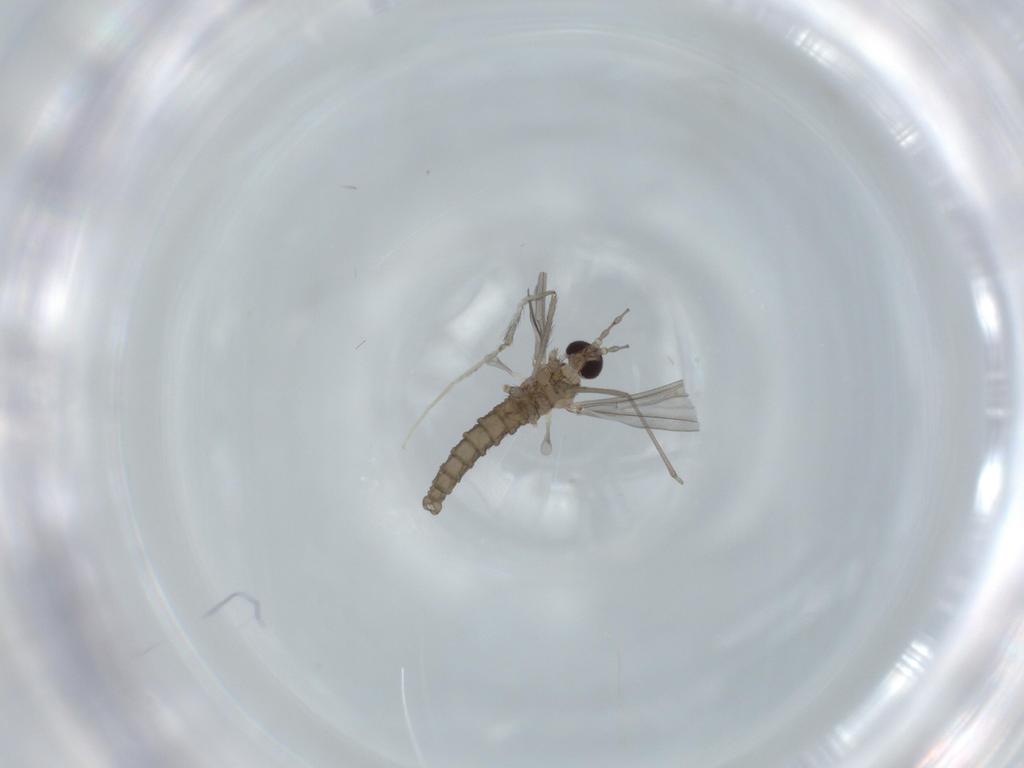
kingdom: Animalia
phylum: Arthropoda
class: Insecta
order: Diptera
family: Cecidomyiidae
